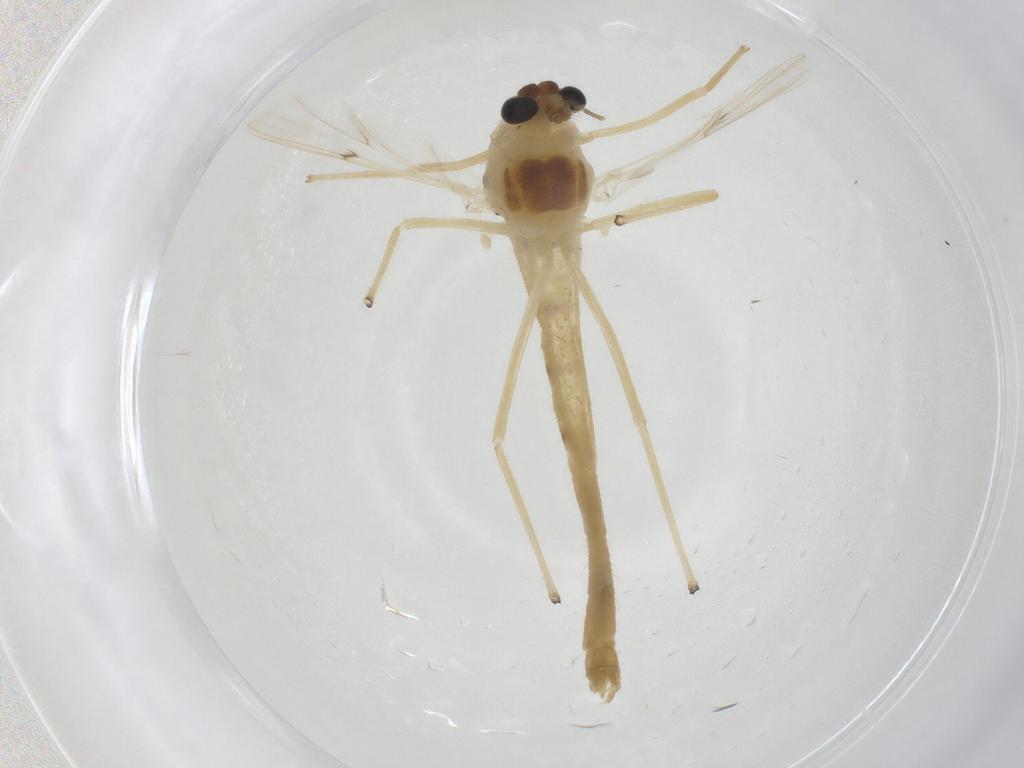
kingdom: Animalia
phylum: Arthropoda
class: Insecta
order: Diptera
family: Chironomidae
